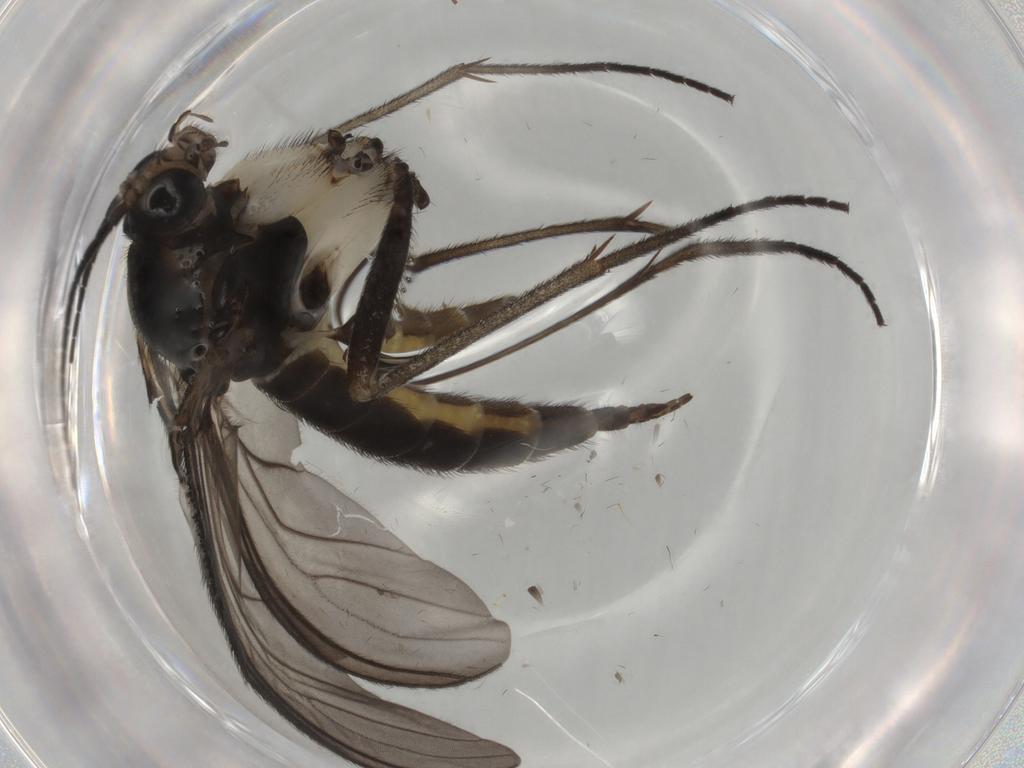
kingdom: Animalia
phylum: Arthropoda
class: Insecta
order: Diptera
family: Sciaridae
